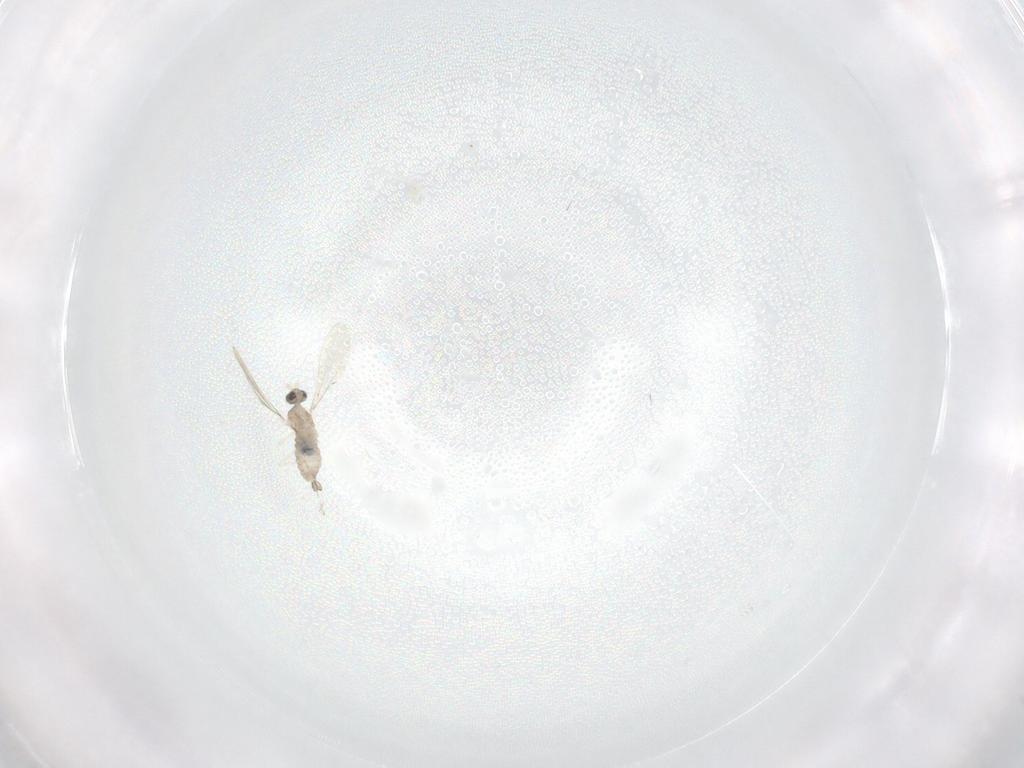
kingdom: Animalia
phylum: Arthropoda
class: Insecta
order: Diptera
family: Cecidomyiidae
